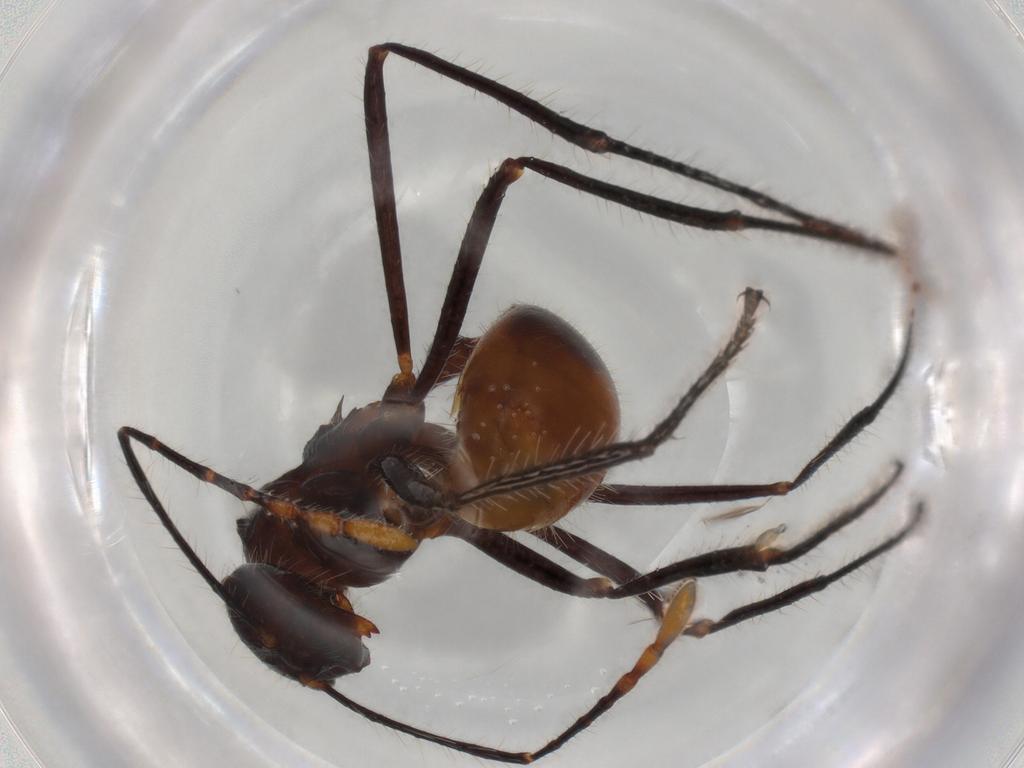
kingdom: Animalia
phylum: Arthropoda
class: Insecta
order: Hymenoptera
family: Formicidae
